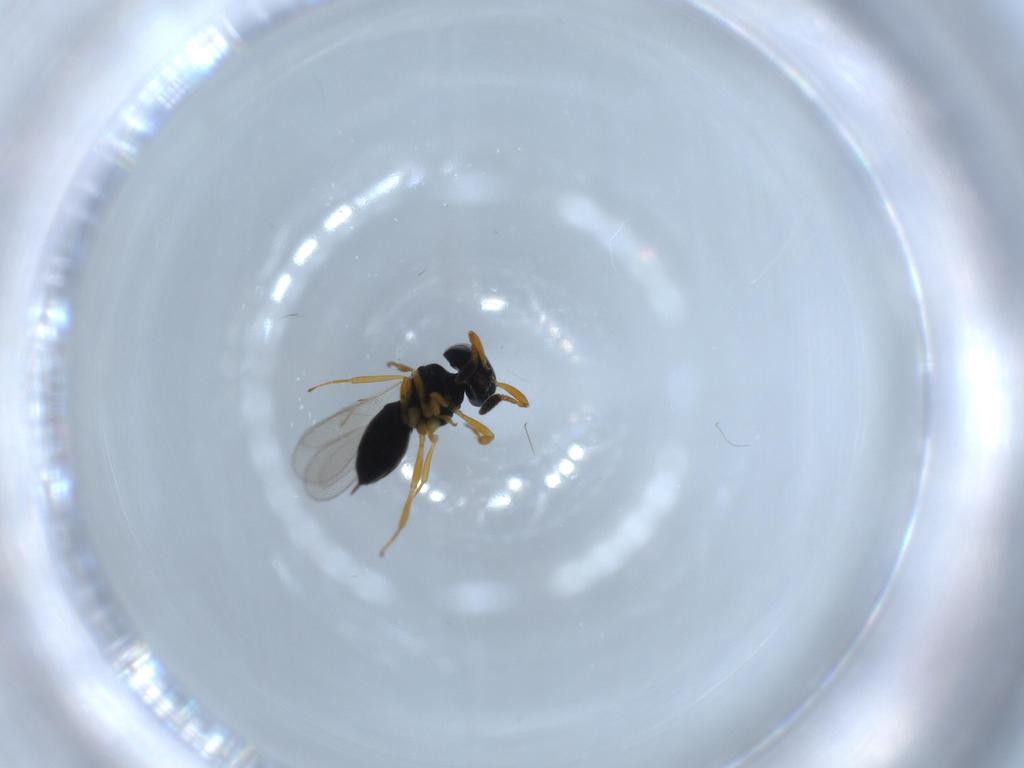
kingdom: Animalia
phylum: Arthropoda
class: Insecta
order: Hymenoptera
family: Scelionidae
